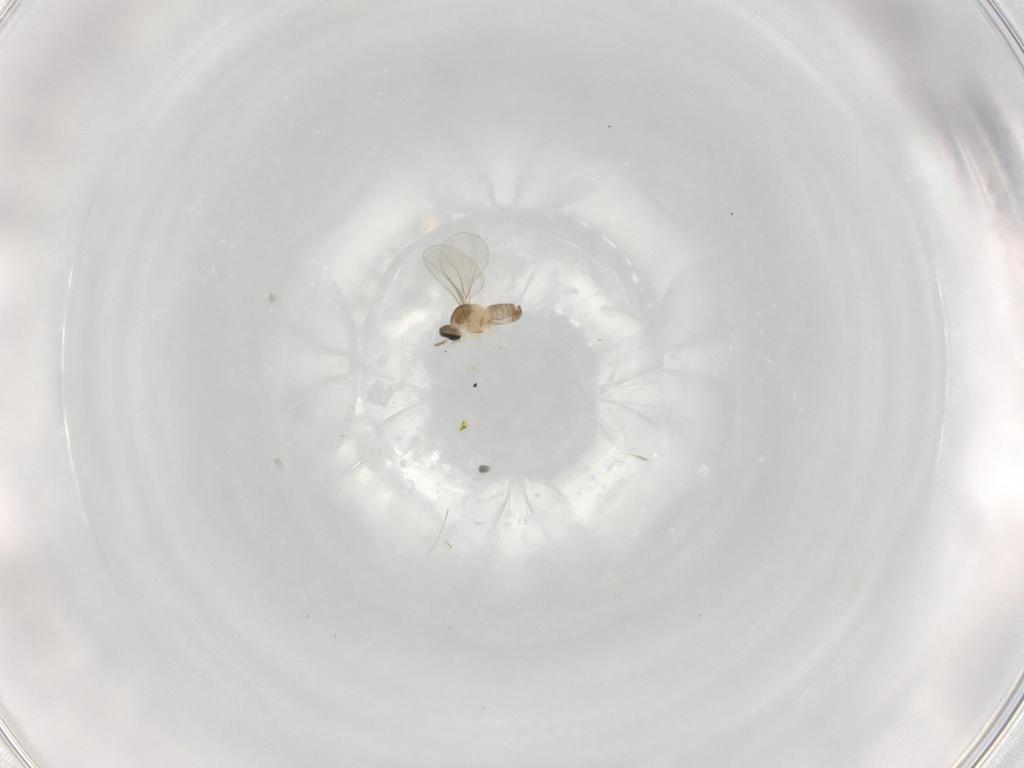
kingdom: Animalia
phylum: Arthropoda
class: Insecta
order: Diptera
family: Cecidomyiidae
